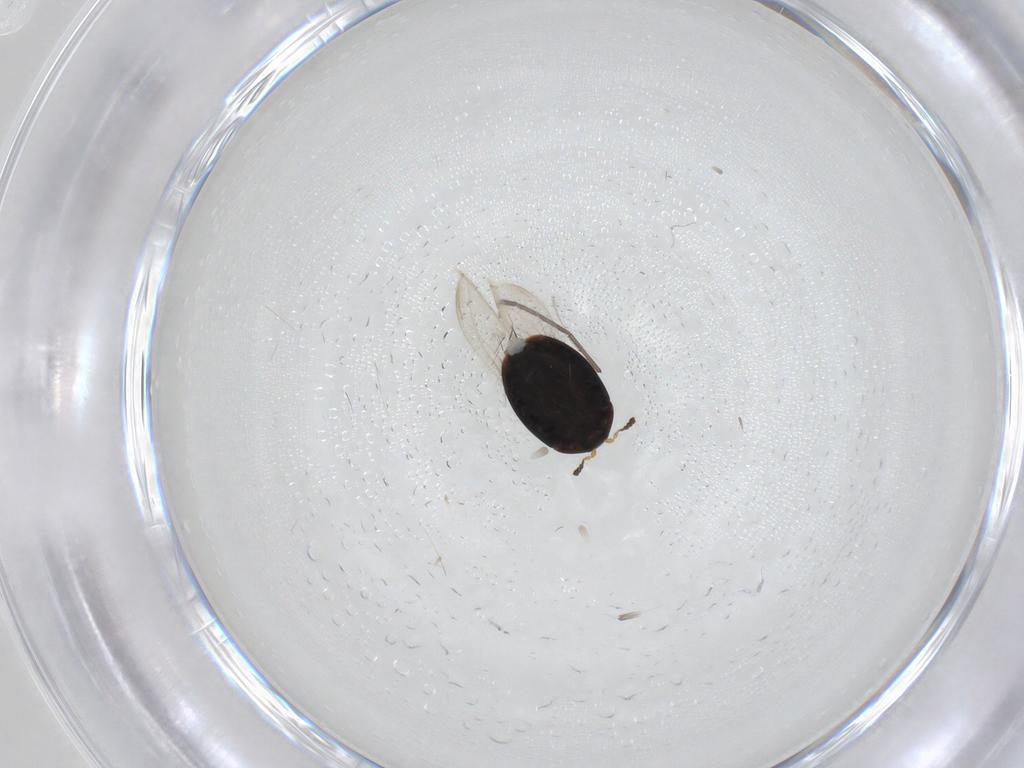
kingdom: Animalia
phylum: Arthropoda
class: Insecta
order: Coleoptera
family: Corylophidae
